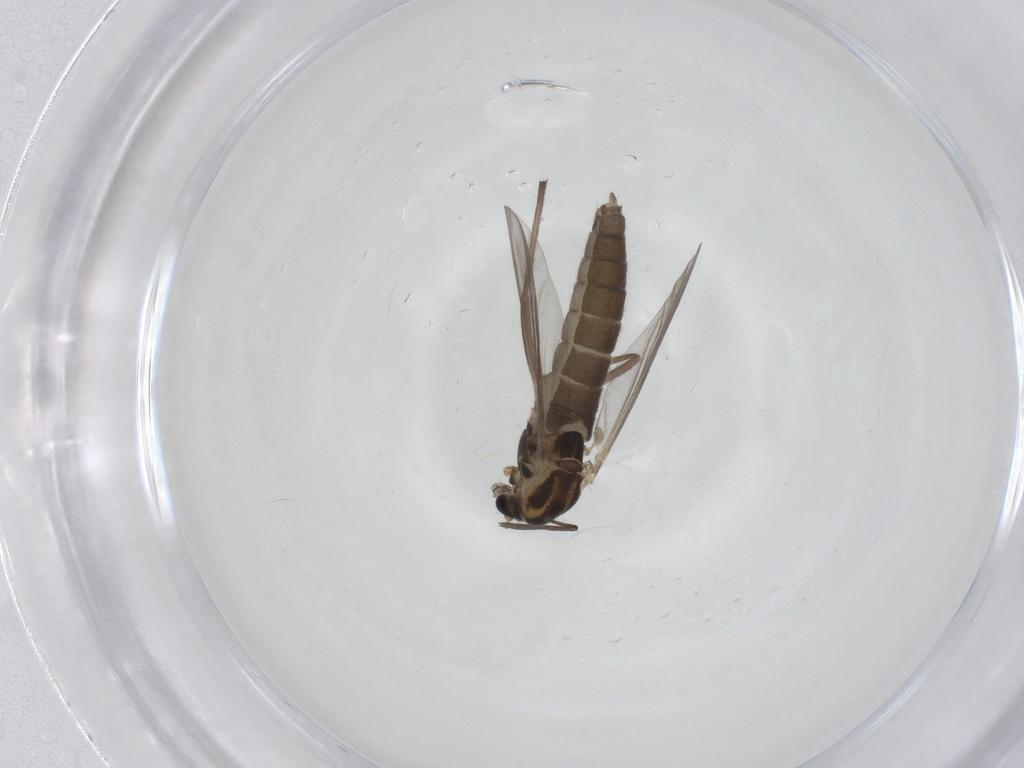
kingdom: Animalia
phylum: Arthropoda
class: Insecta
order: Diptera
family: Chironomidae
